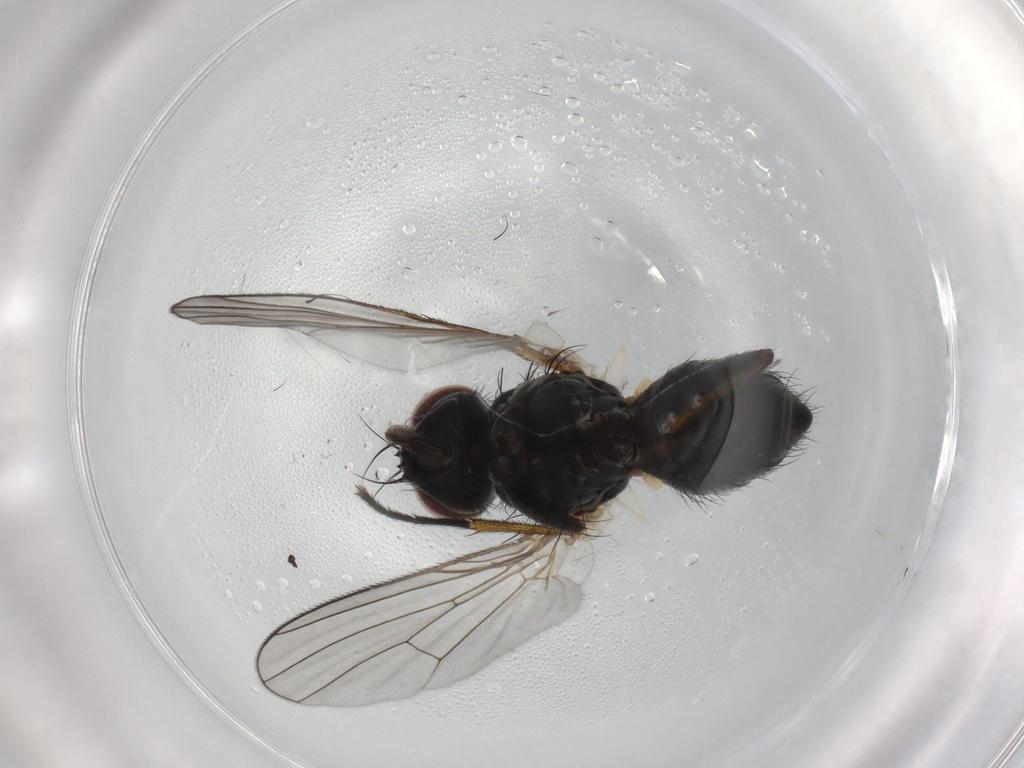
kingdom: Animalia
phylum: Arthropoda
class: Insecta
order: Diptera
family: Muscidae
